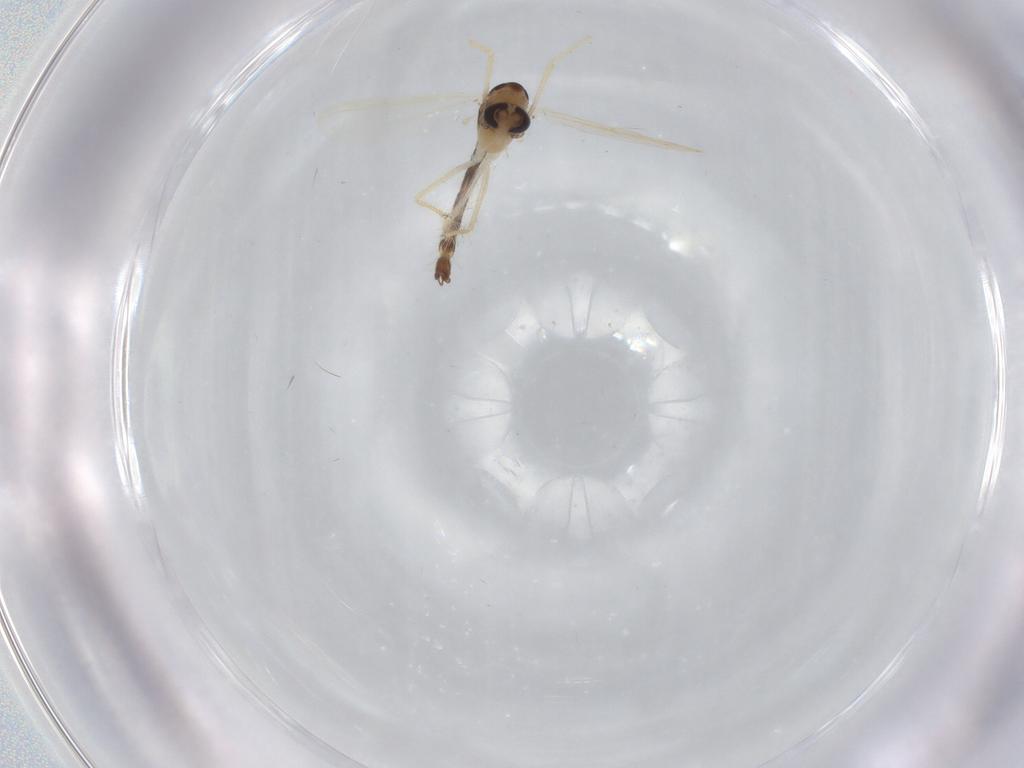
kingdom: Animalia
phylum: Arthropoda
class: Insecta
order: Diptera
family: Chironomidae
